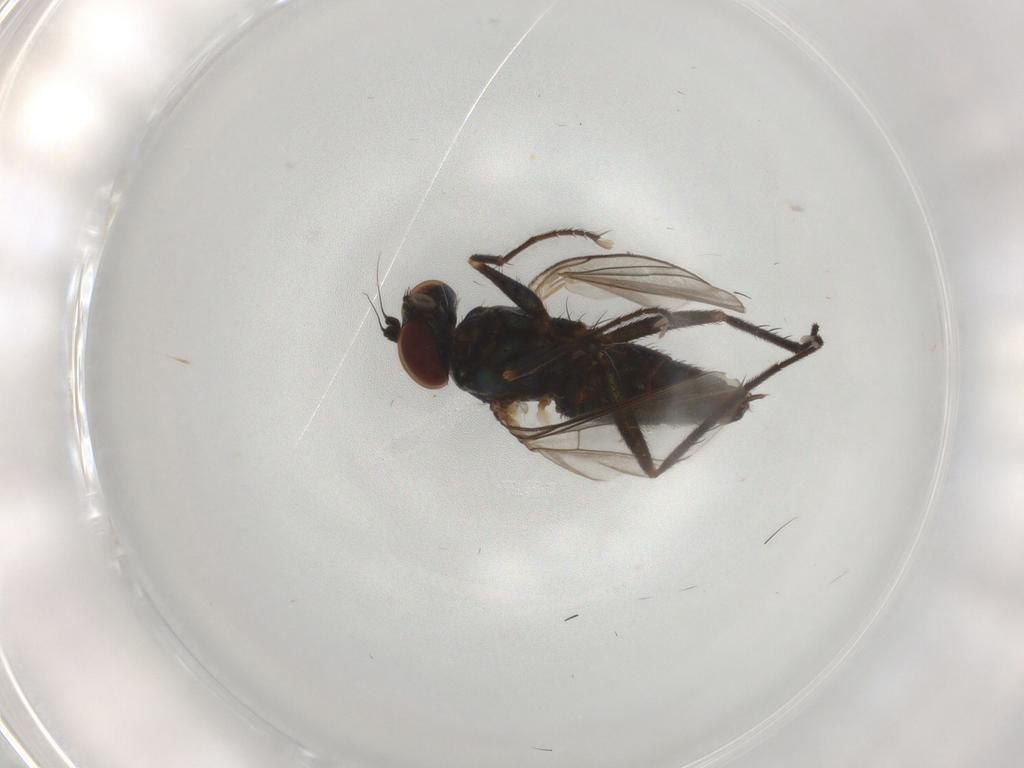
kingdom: Animalia
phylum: Arthropoda
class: Insecta
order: Diptera
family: Dolichopodidae
